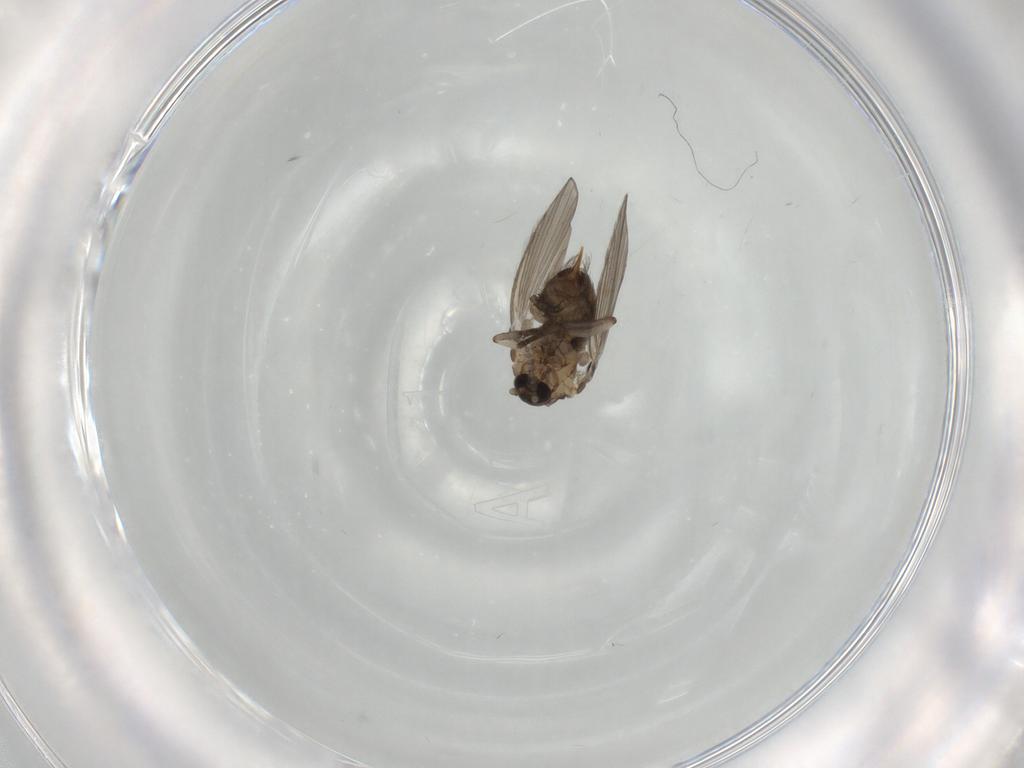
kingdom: Animalia
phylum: Arthropoda
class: Insecta
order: Diptera
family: Psychodidae
